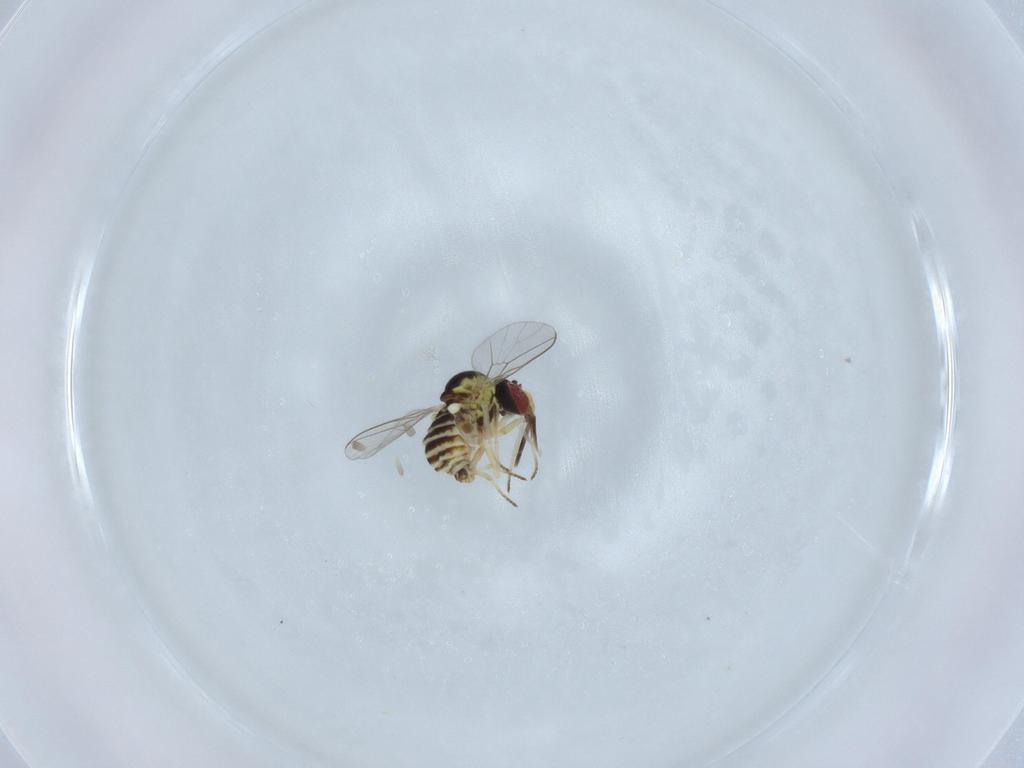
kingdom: Animalia
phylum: Arthropoda
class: Insecta
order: Diptera
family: Bombyliidae
